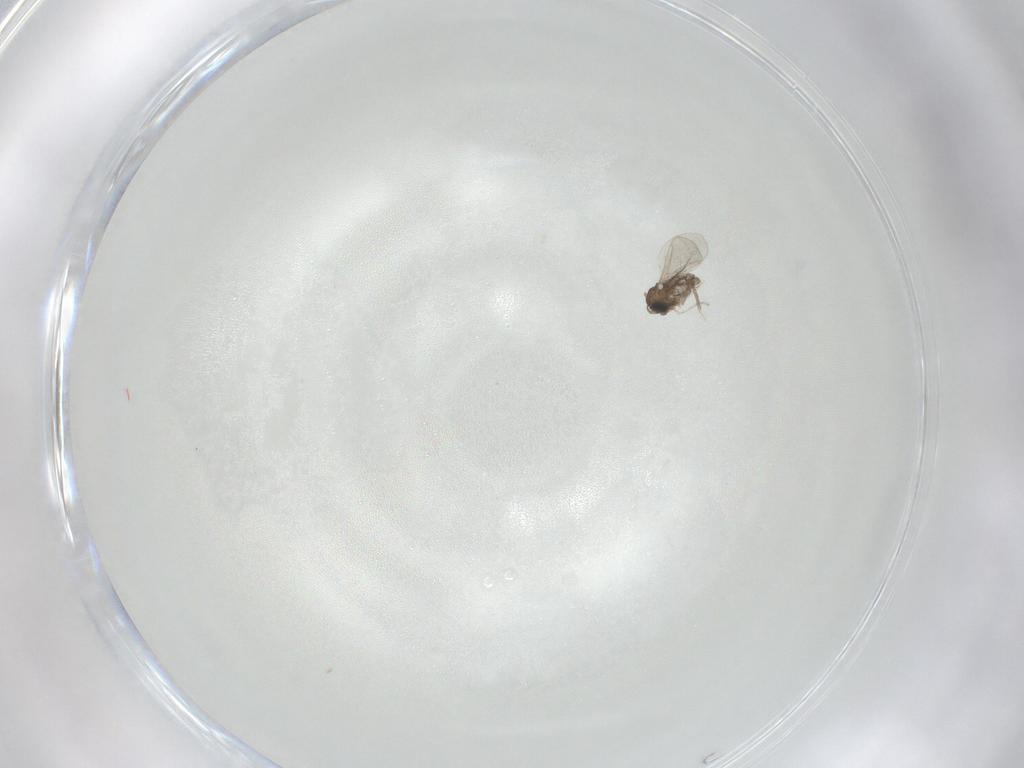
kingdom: Animalia
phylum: Arthropoda
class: Insecta
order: Diptera
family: Cecidomyiidae
